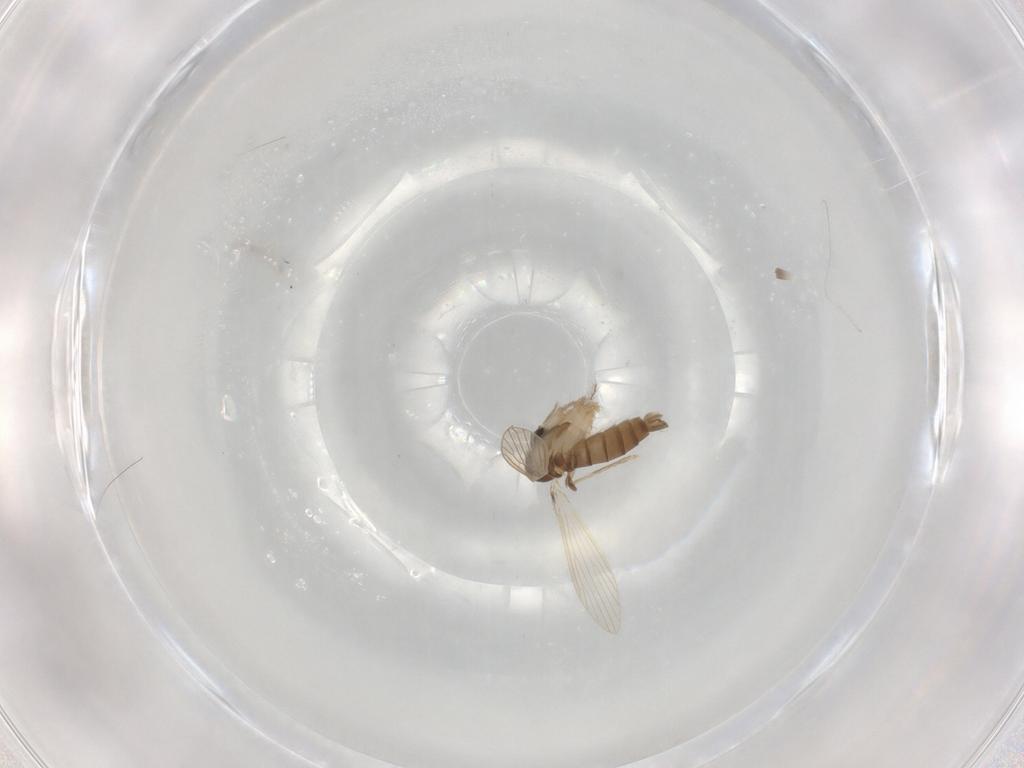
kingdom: Animalia
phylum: Arthropoda
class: Insecta
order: Diptera
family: Psychodidae
